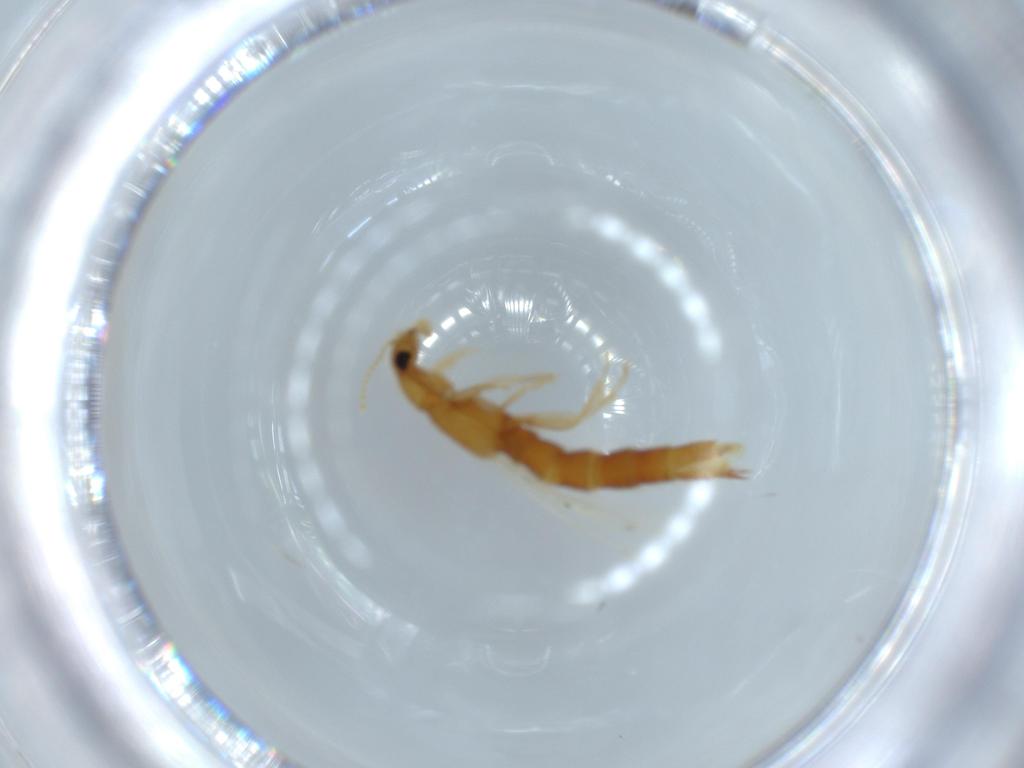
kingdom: Animalia
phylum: Arthropoda
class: Insecta
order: Coleoptera
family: Staphylinidae
